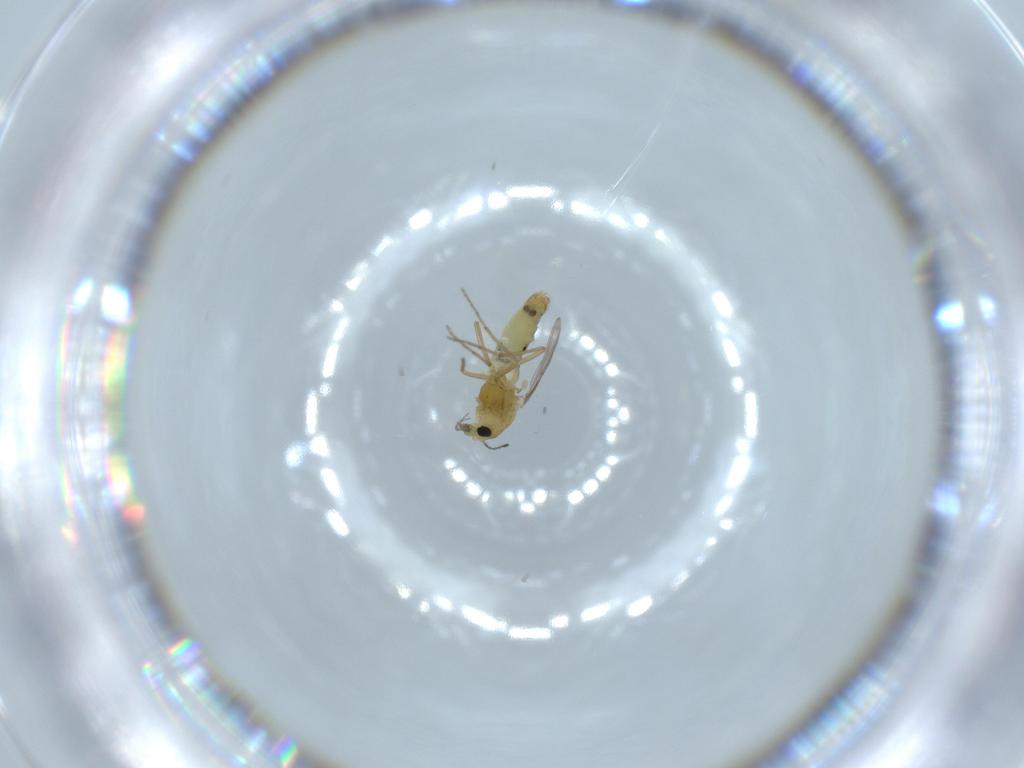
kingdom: Animalia
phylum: Arthropoda
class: Insecta
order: Diptera
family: Chironomidae
